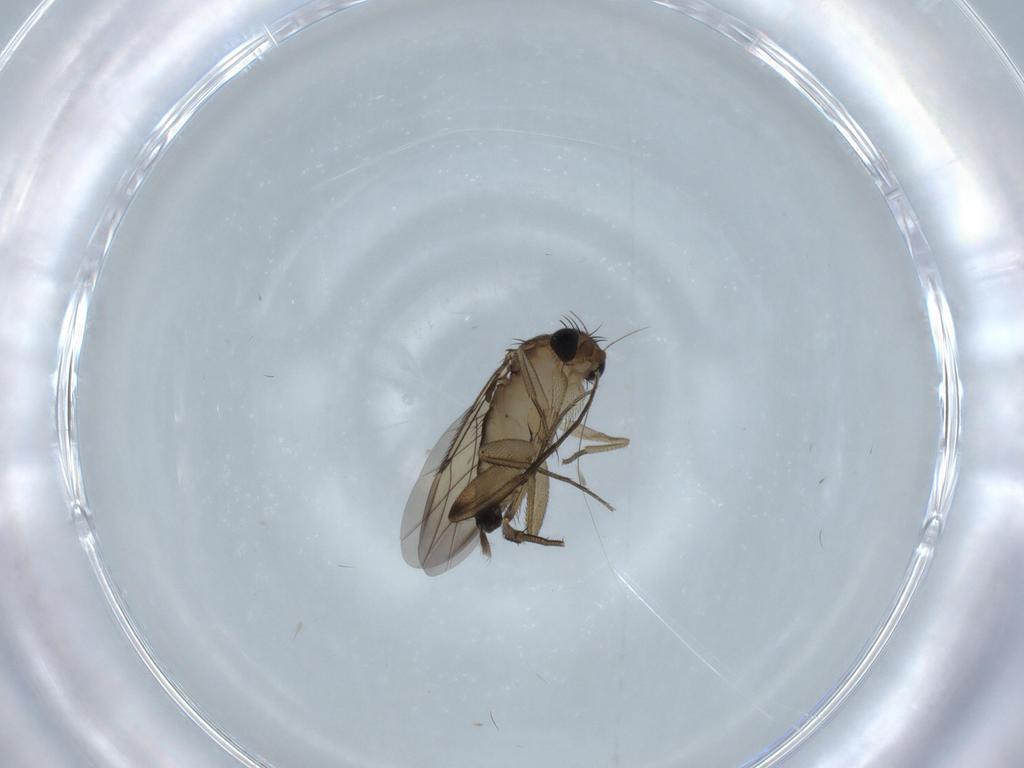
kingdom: Animalia
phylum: Arthropoda
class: Insecta
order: Diptera
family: Phoridae
